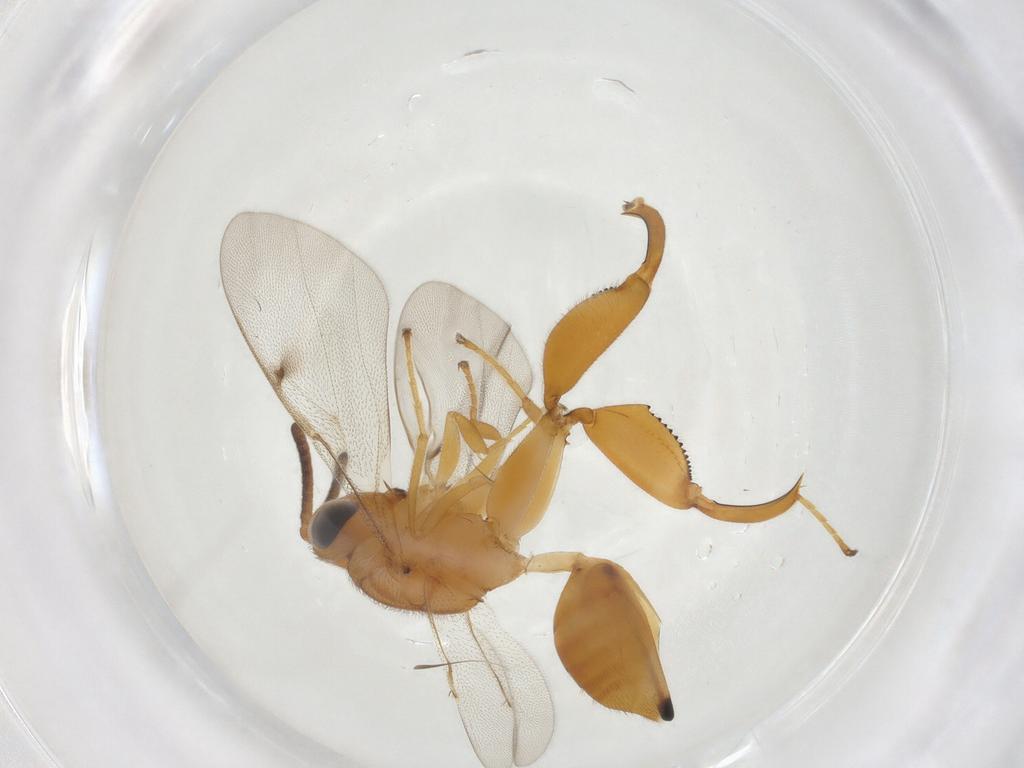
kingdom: Animalia
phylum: Arthropoda
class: Insecta
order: Hymenoptera
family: Chalcididae
